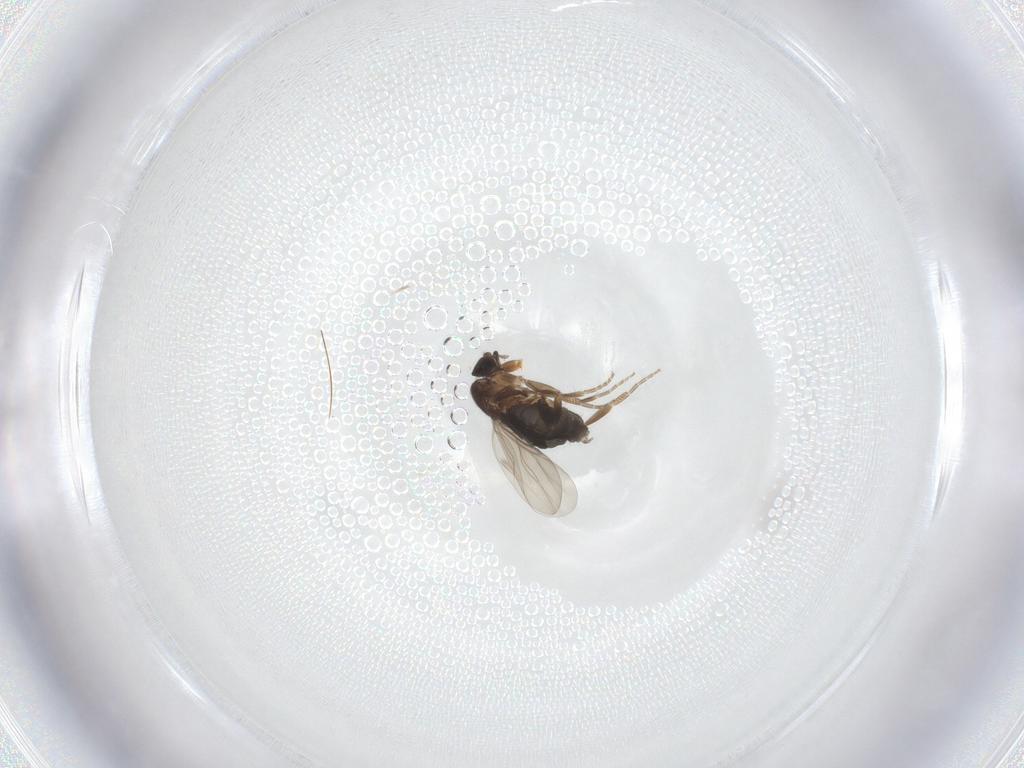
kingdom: Animalia
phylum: Arthropoda
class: Insecta
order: Diptera
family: Phoridae
